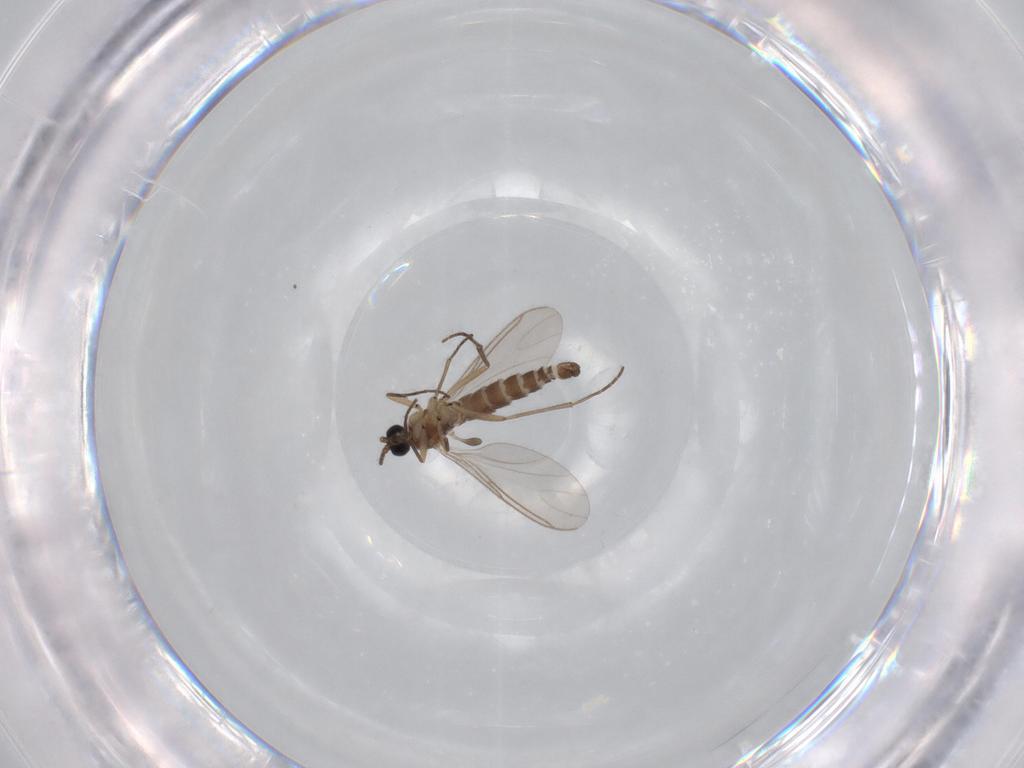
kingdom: Animalia
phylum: Arthropoda
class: Insecta
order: Diptera
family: Sciaridae
